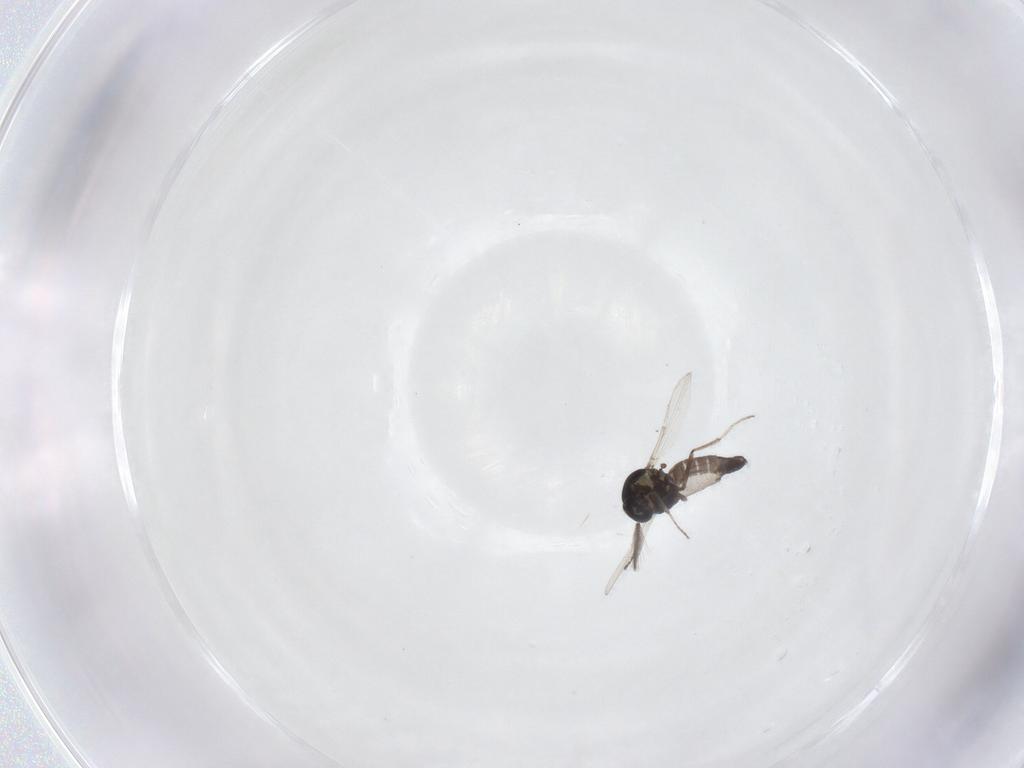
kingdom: Animalia
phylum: Arthropoda
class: Insecta
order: Diptera
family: Ceratopogonidae
